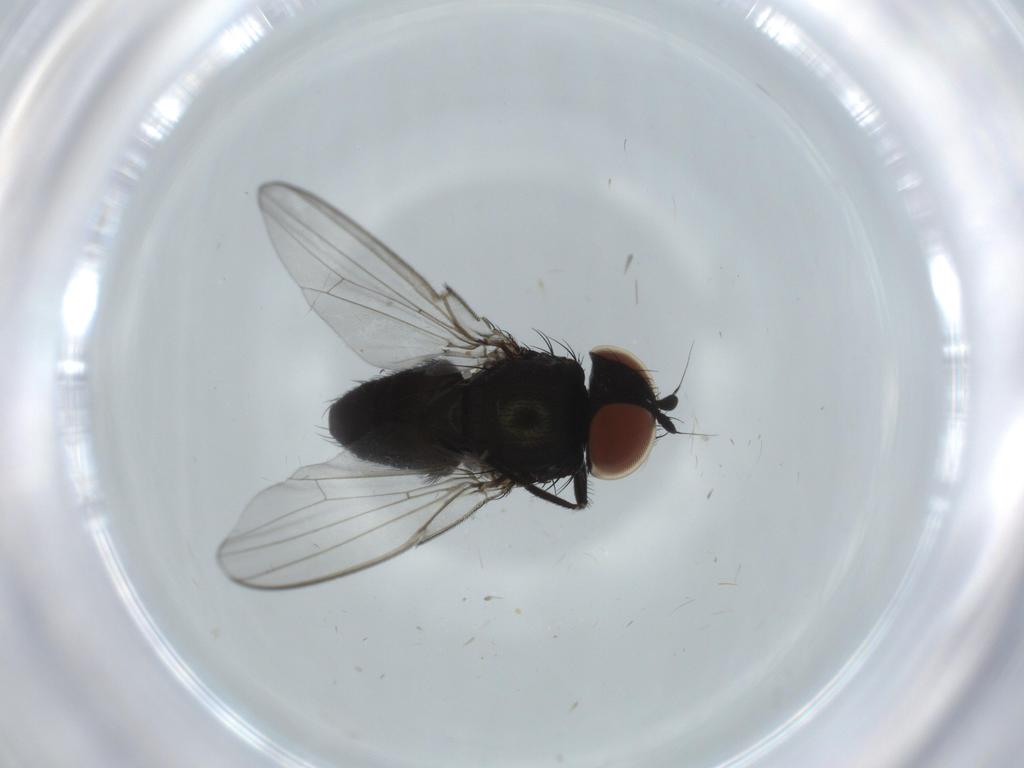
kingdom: Animalia
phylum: Arthropoda
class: Insecta
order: Diptera
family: Milichiidae
